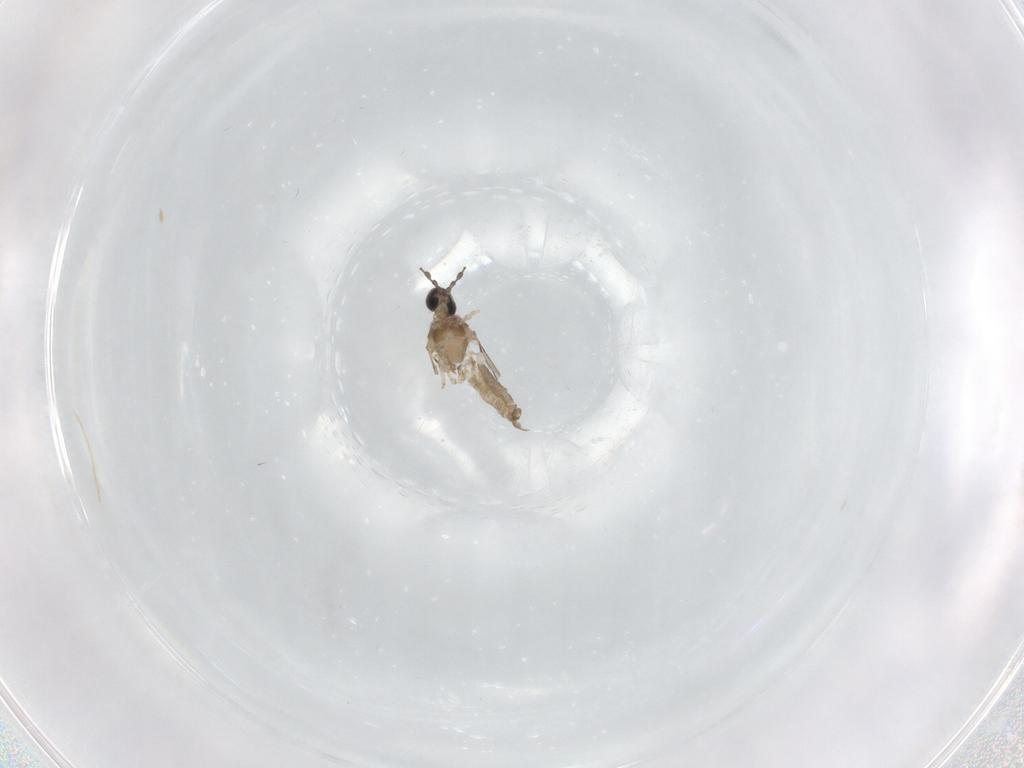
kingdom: Animalia
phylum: Arthropoda
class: Insecta
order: Diptera
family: Cecidomyiidae
